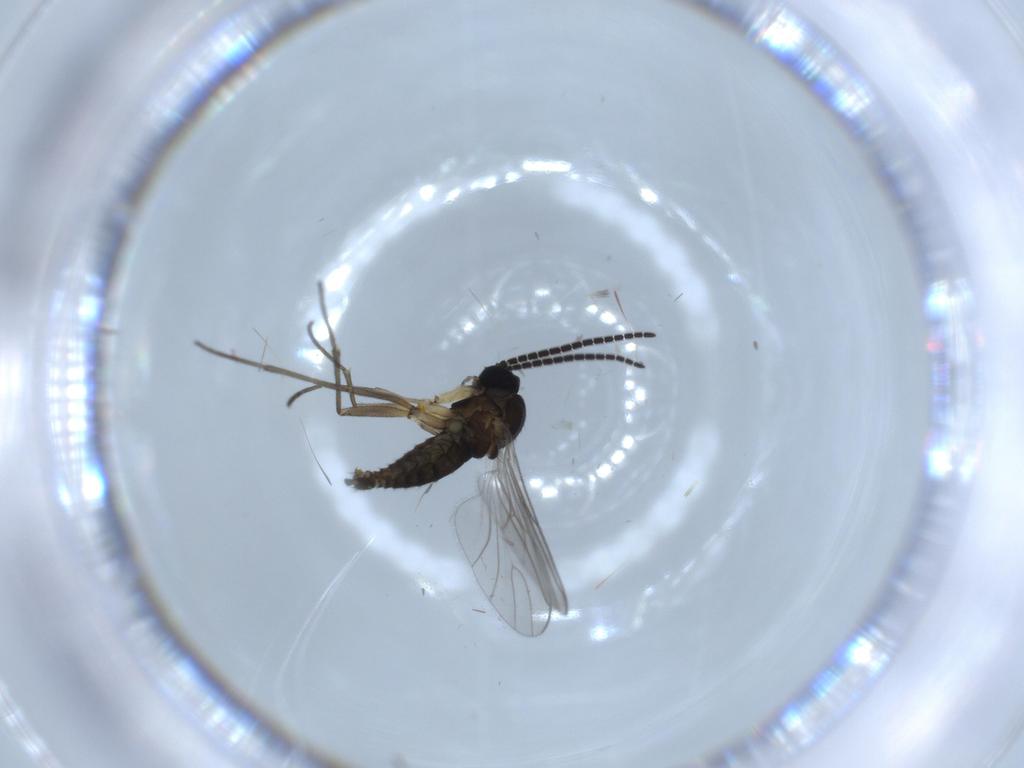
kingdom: Animalia
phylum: Arthropoda
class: Insecta
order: Diptera
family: Sciaridae
